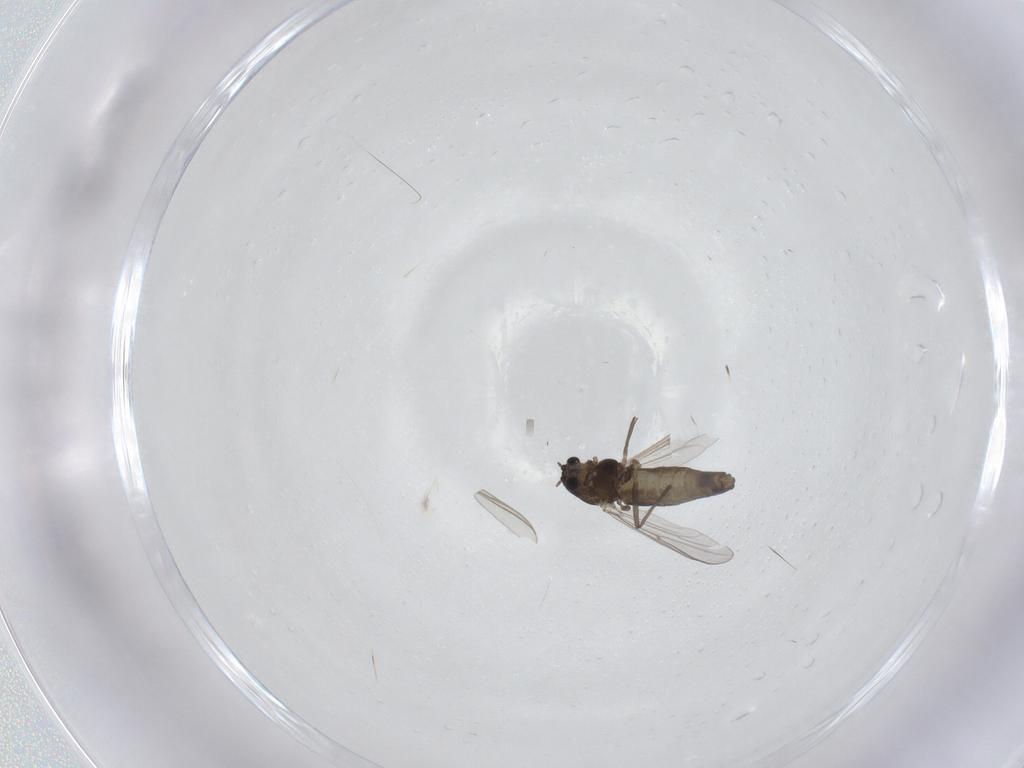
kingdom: Animalia
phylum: Arthropoda
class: Insecta
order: Diptera
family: Chironomidae
